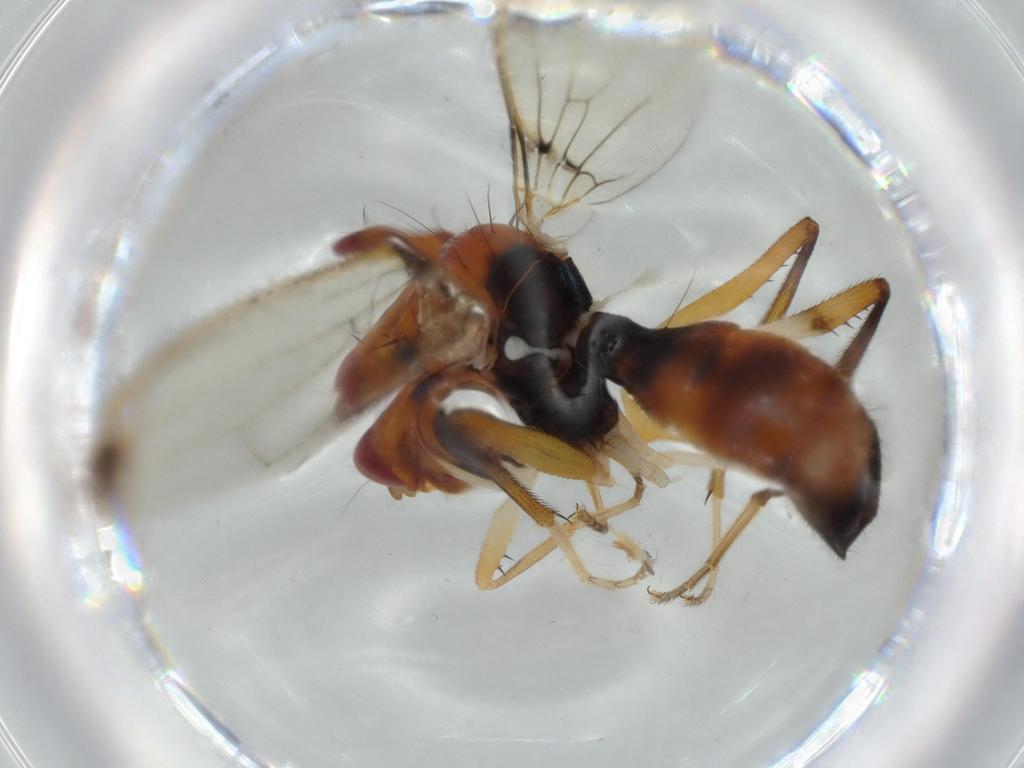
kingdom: Animalia
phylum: Arthropoda
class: Insecta
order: Diptera
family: Richardiidae
